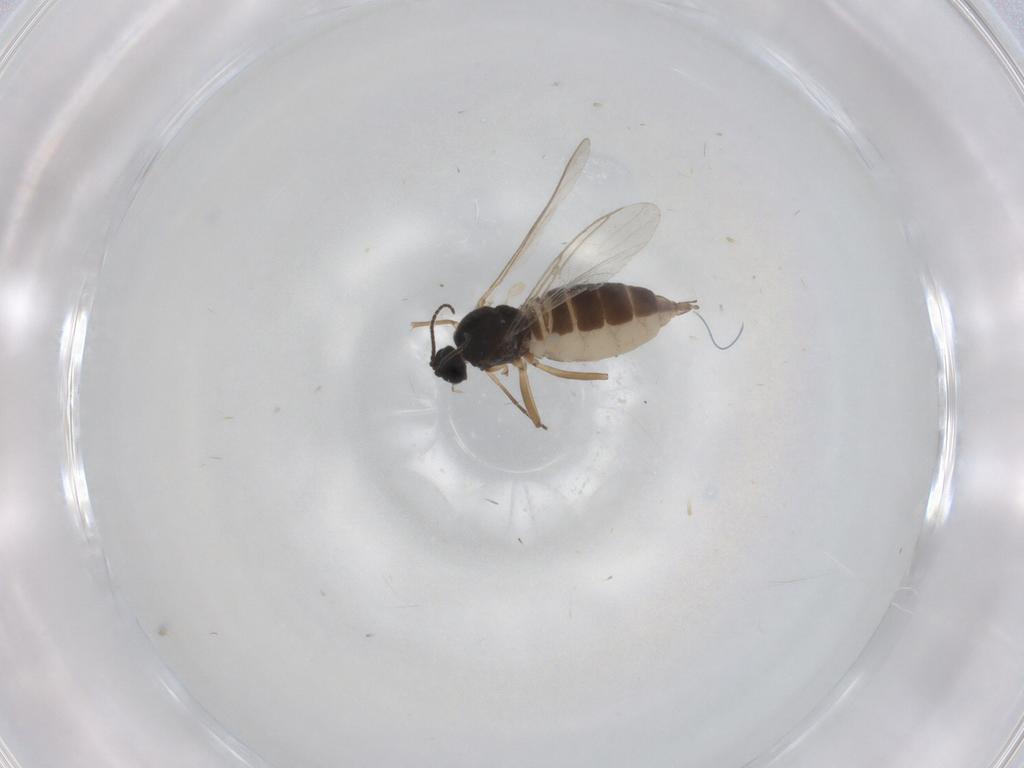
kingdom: Animalia
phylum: Arthropoda
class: Insecta
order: Diptera
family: Sciaridae
